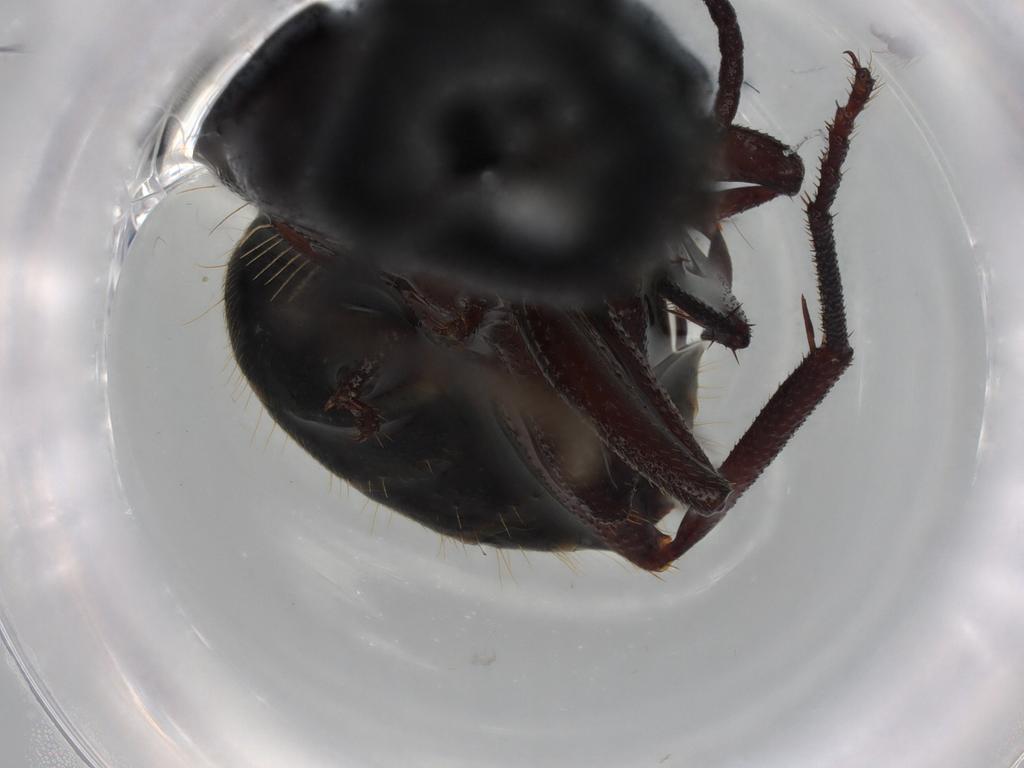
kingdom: Animalia
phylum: Arthropoda
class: Insecta
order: Hymenoptera
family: Formicidae
